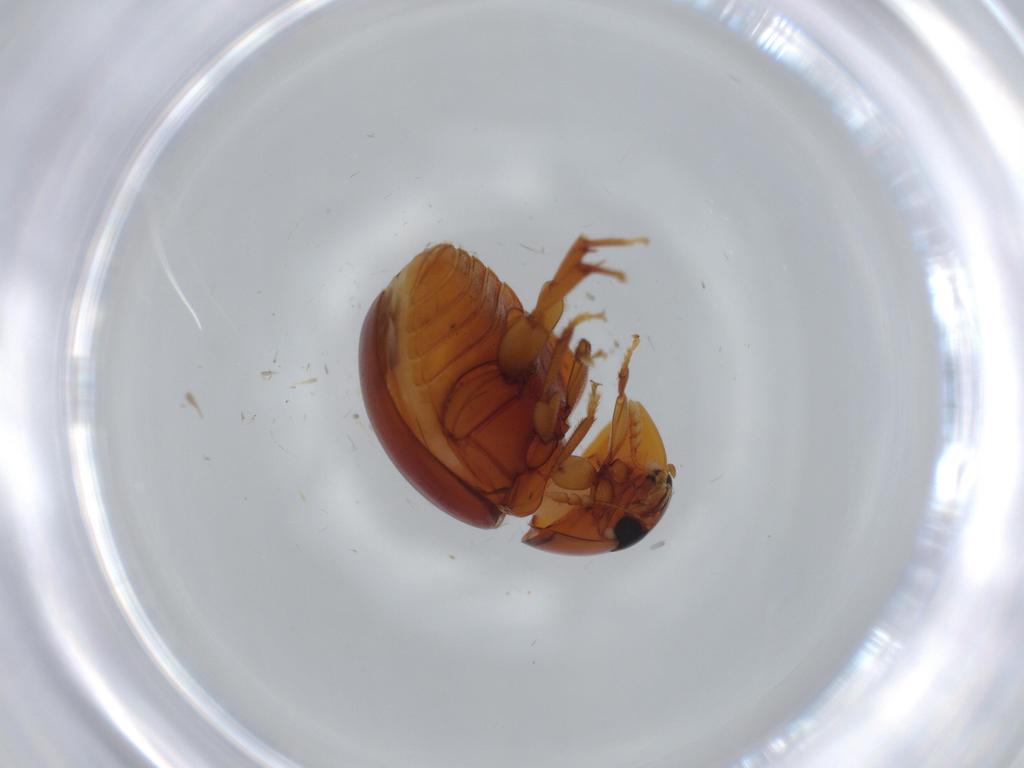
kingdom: Animalia
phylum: Arthropoda
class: Insecta
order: Coleoptera
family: Phalacridae
